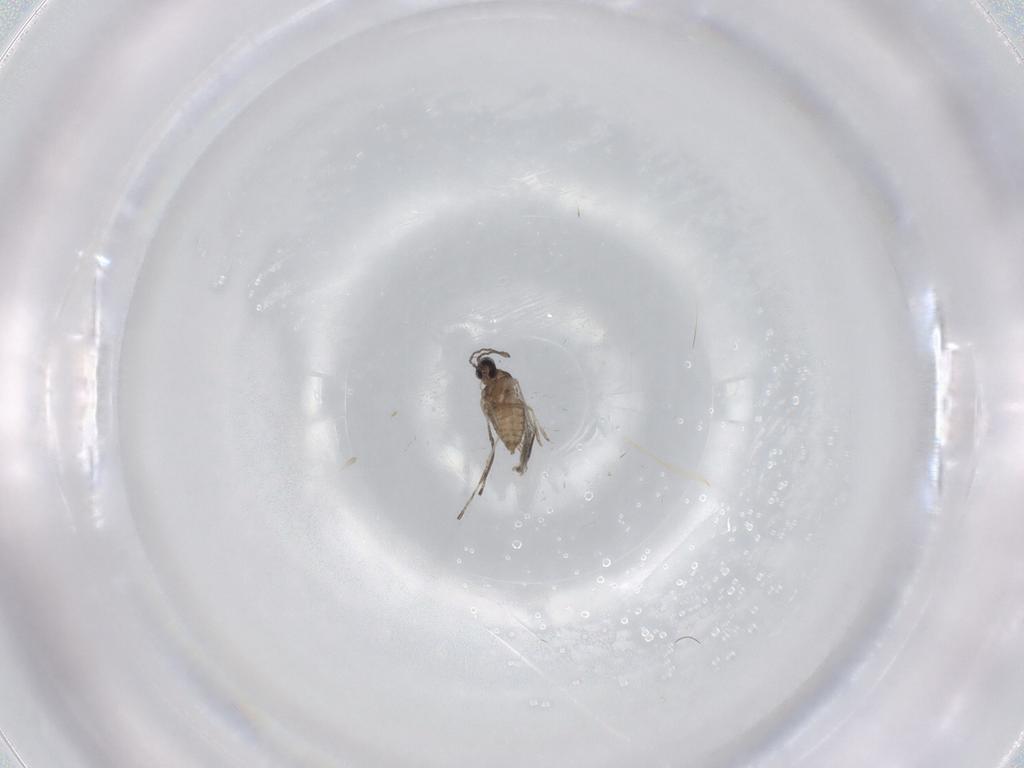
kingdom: Animalia
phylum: Arthropoda
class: Insecta
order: Diptera
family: Cecidomyiidae
